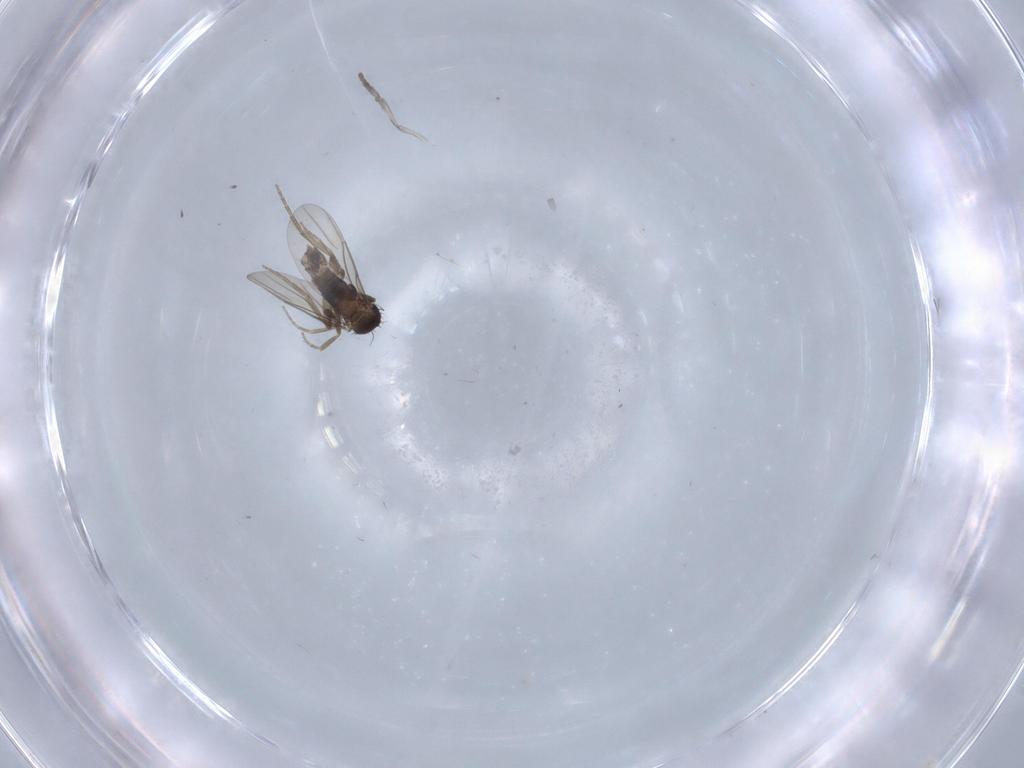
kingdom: Animalia
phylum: Arthropoda
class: Insecta
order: Diptera
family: Phoridae
